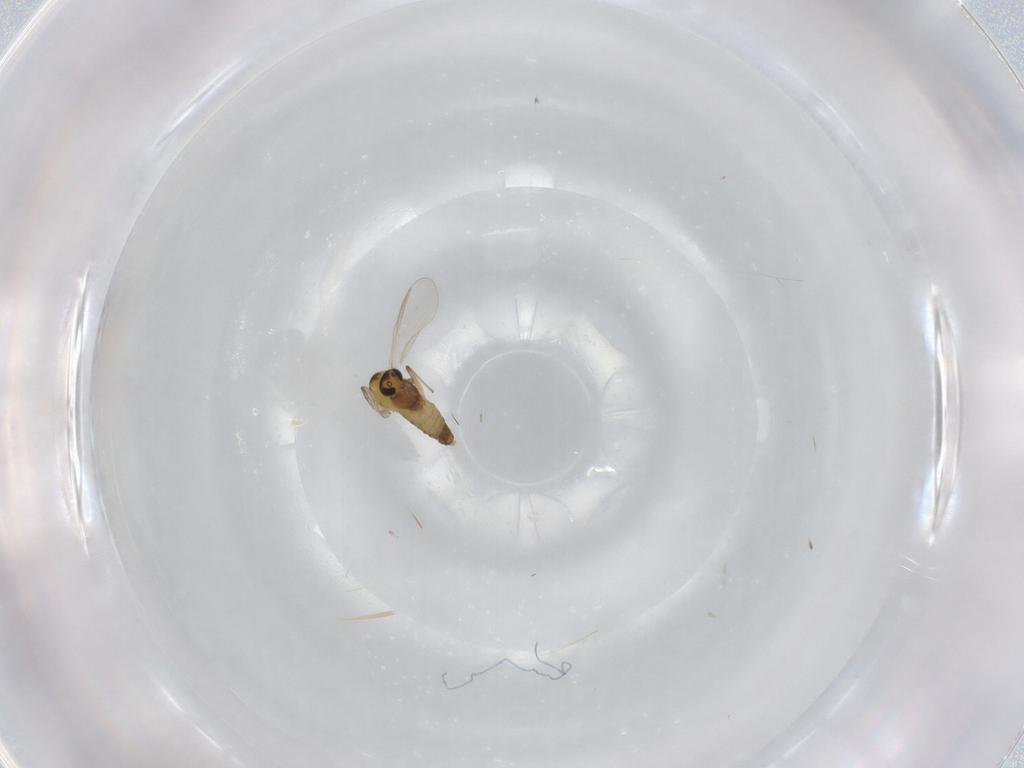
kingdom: Animalia
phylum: Arthropoda
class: Insecta
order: Diptera
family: Chironomidae
